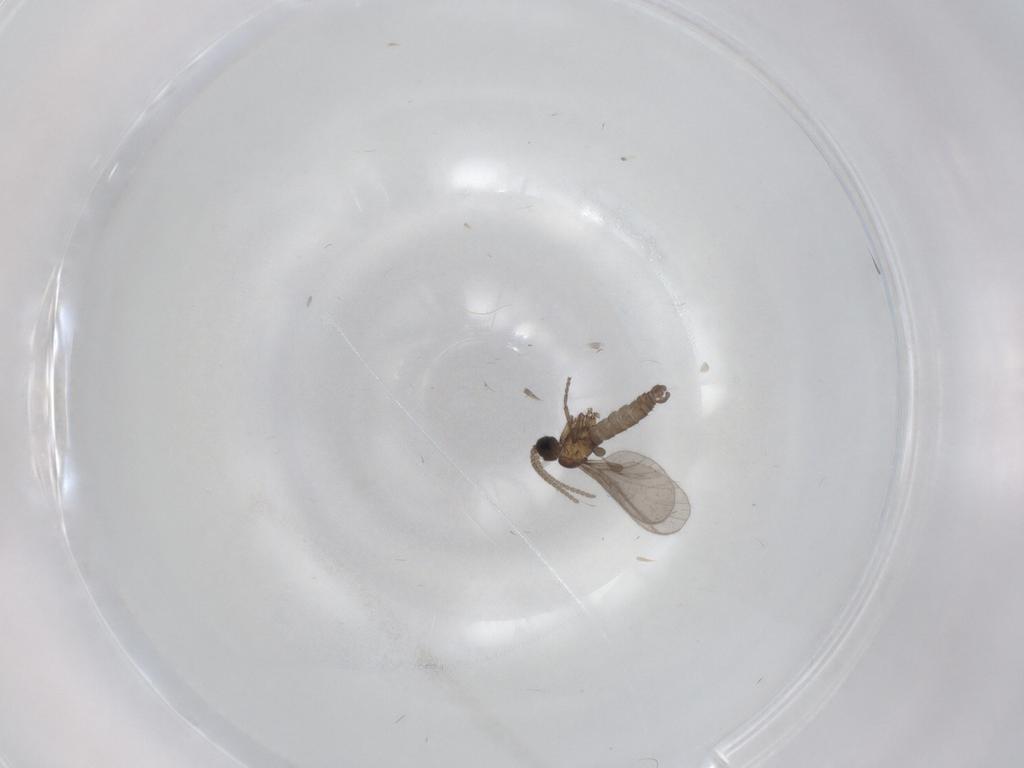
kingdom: Animalia
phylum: Arthropoda
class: Insecta
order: Diptera
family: Sciaridae
